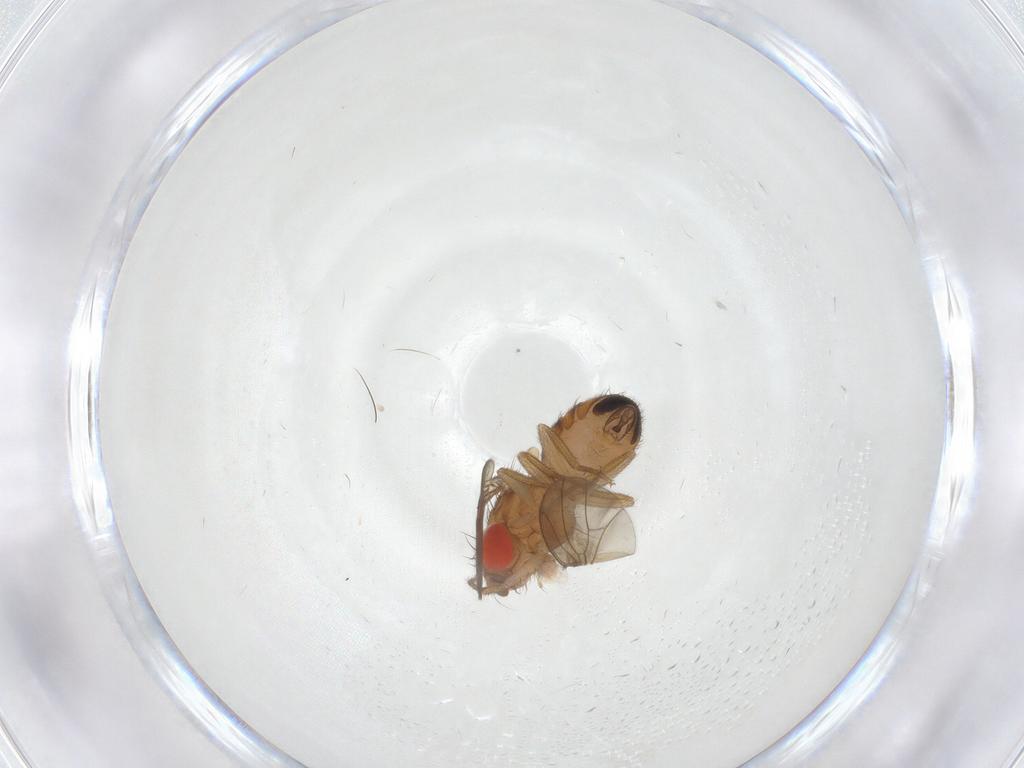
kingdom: Animalia
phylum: Arthropoda
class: Insecta
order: Diptera
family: Drosophilidae
